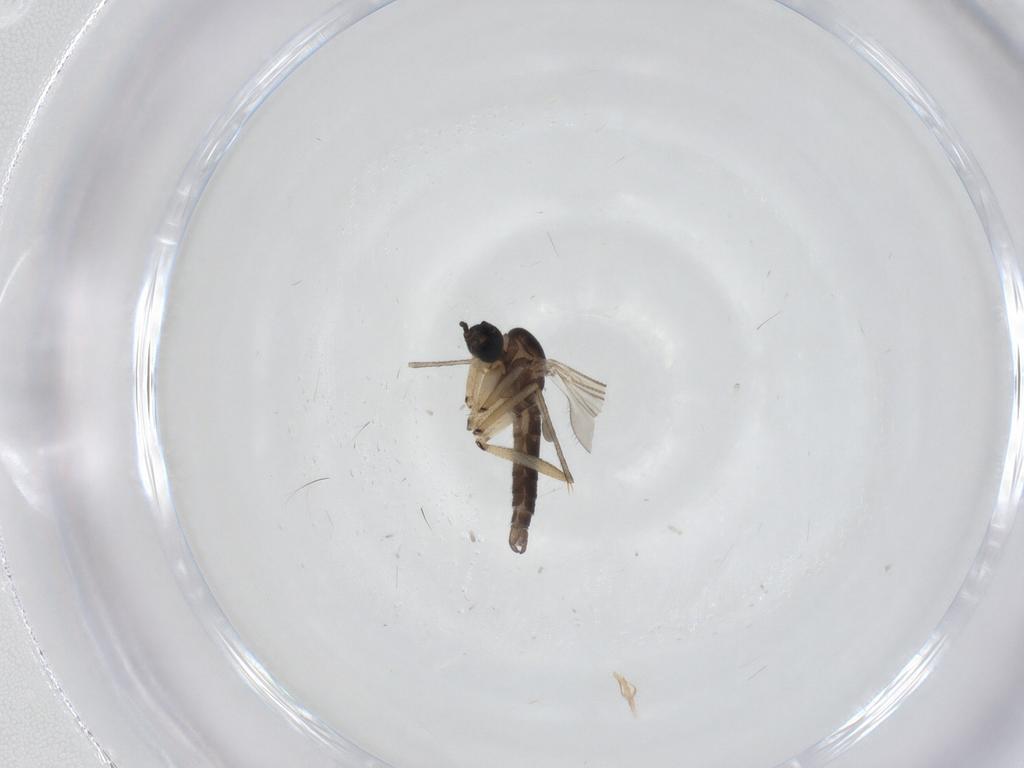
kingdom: Animalia
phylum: Arthropoda
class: Insecta
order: Diptera
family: Sciaridae
